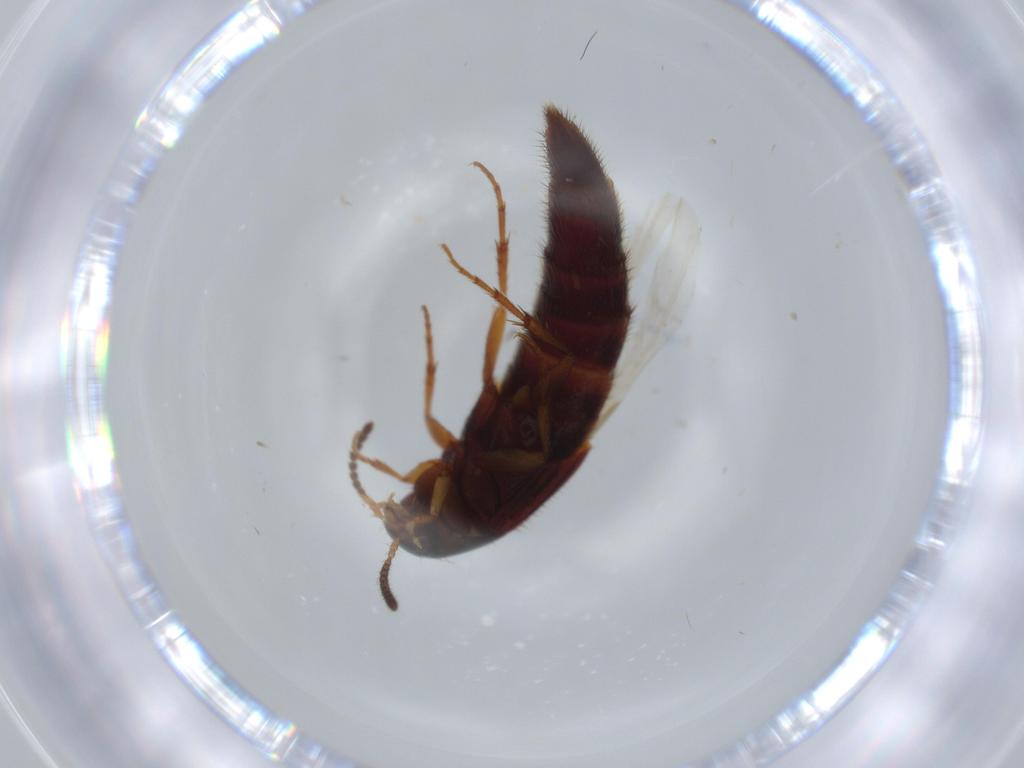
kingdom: Animalia
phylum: Arthropoda
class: Insecta
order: Coleoptera
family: Staphylinidae
